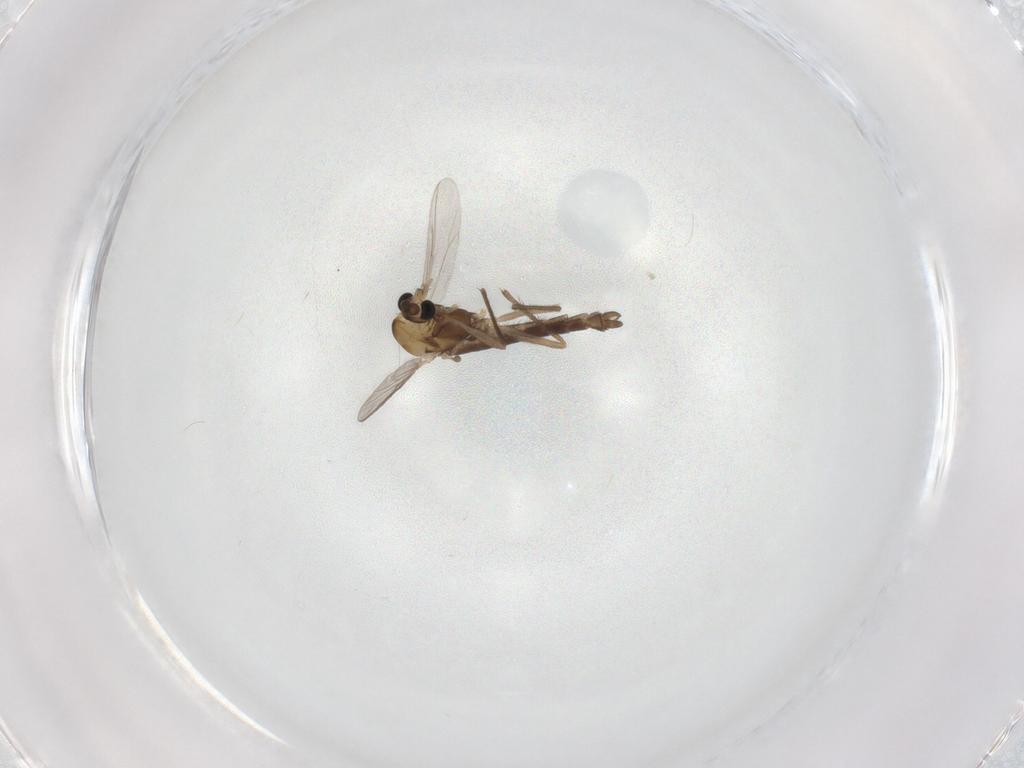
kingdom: Animalia
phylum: Arthropoda
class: Insecta
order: Diptera
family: Chironomidae
